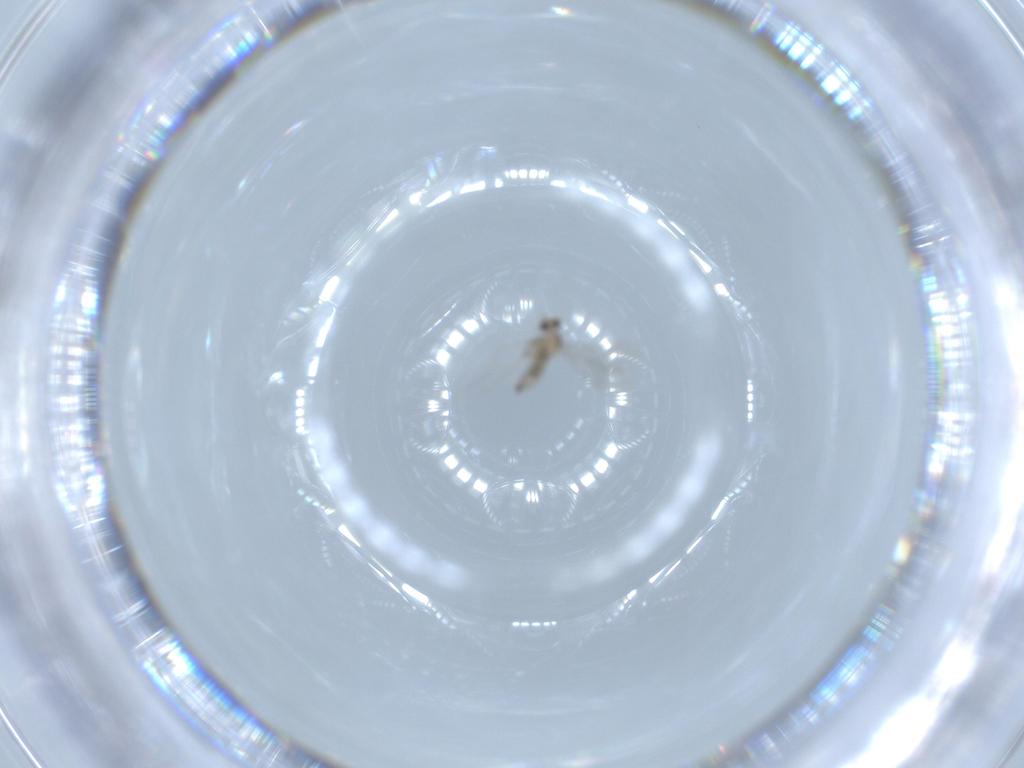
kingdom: Animalia
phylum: Arthropoda
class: Insecta
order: Diptera
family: Cecidomyiidae
